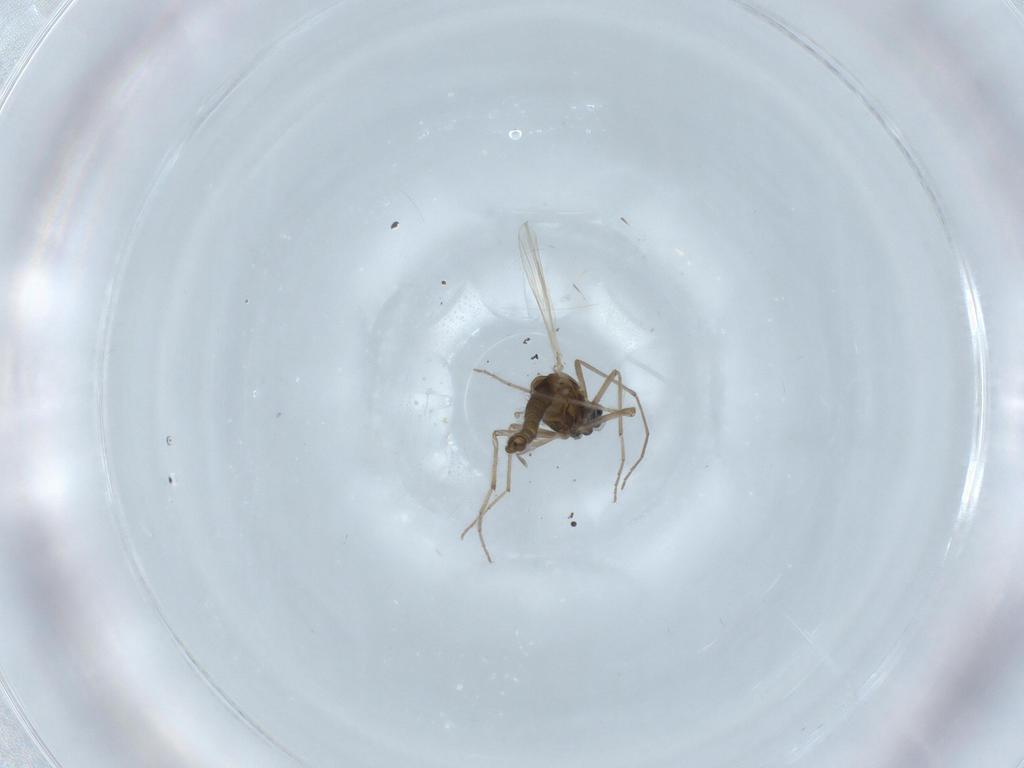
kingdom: Animalia
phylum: Arthropoda
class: Insecta
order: Diptera
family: Chironomidae
